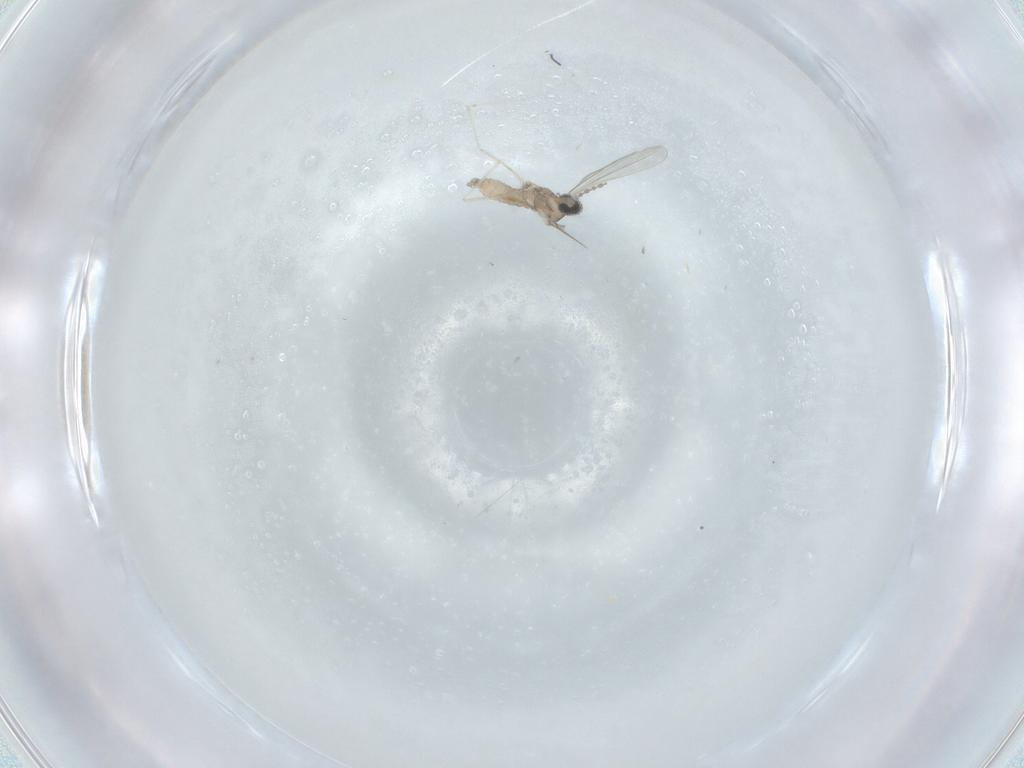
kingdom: Animalia
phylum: Arthropoda
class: Insecta
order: Diptera
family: Cecidomyiidae
